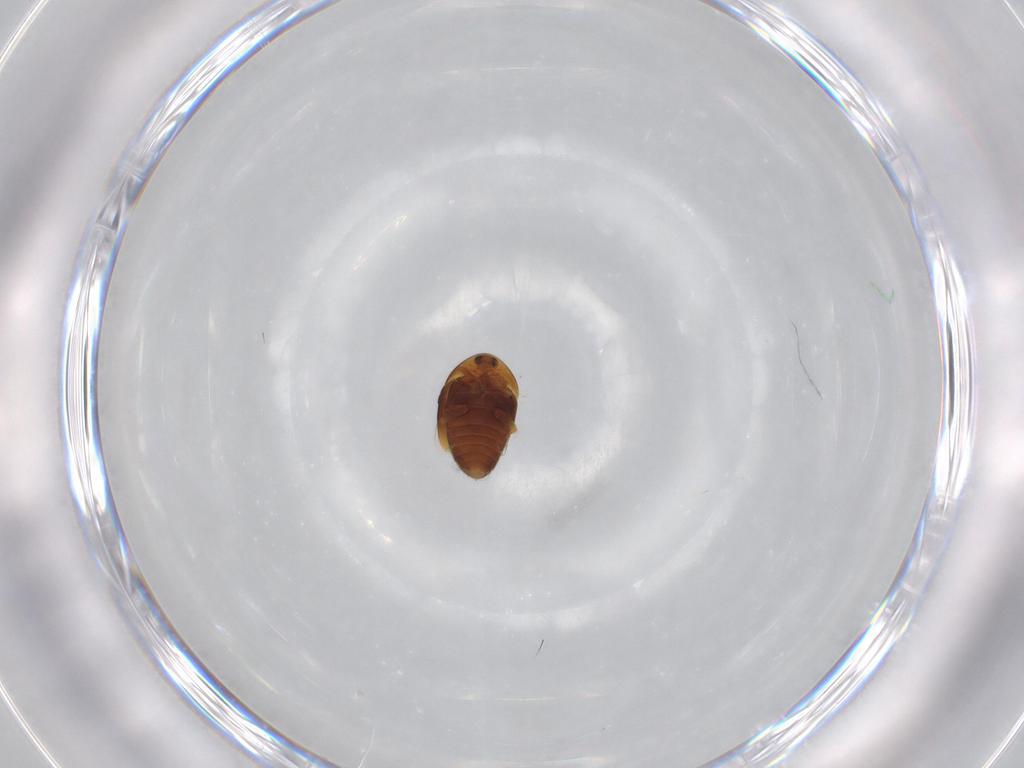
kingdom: Animalia
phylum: Arthropoda
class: Insecta
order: Coleoptera
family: Corylophidae
